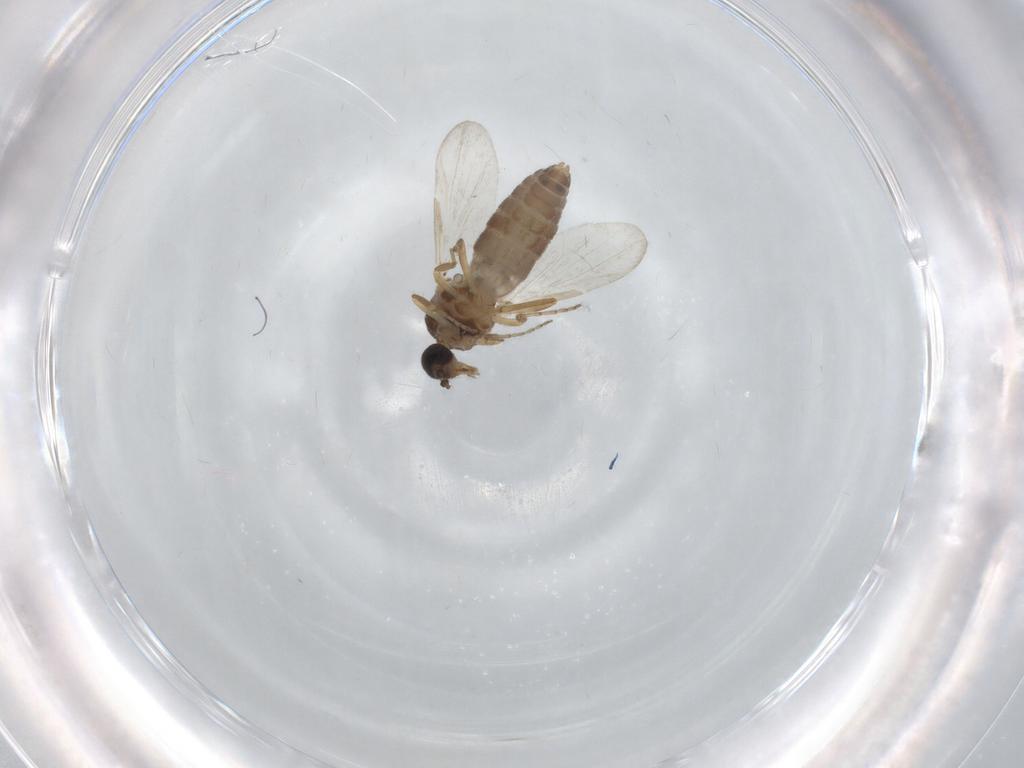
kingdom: Animalia
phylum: Arthropoda
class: Insecta
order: Diptera
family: Ceratopogonidae
